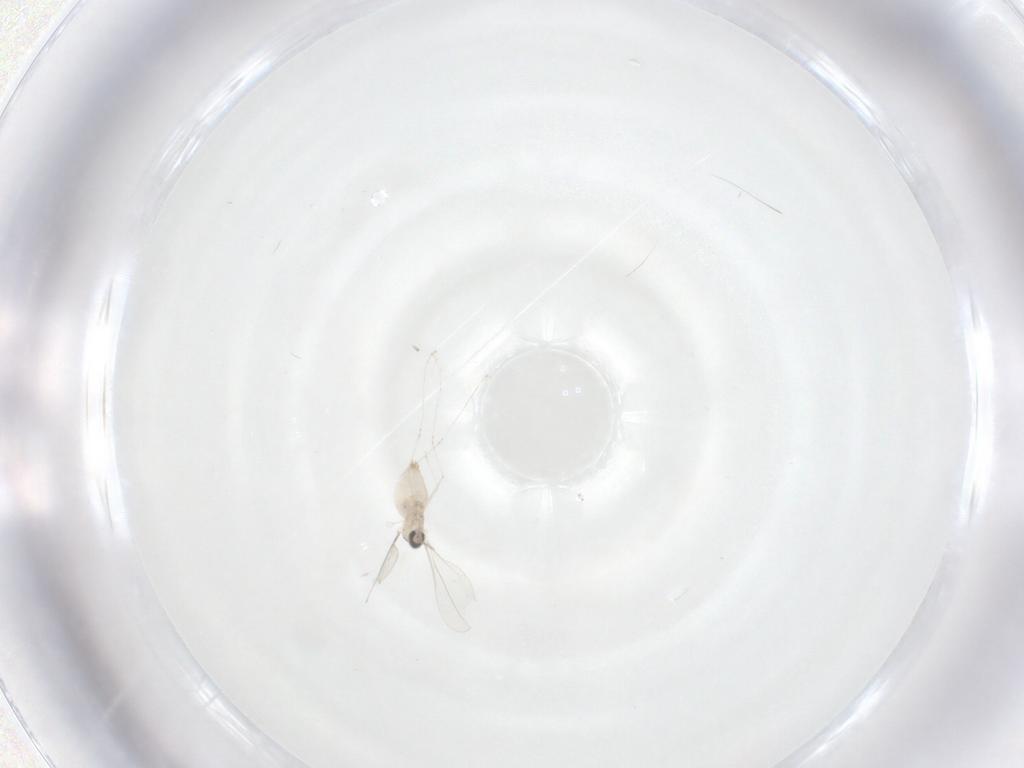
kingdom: Animalia
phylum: Arthropoda
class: Insecta
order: Diptera
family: Cecidomyiidae
